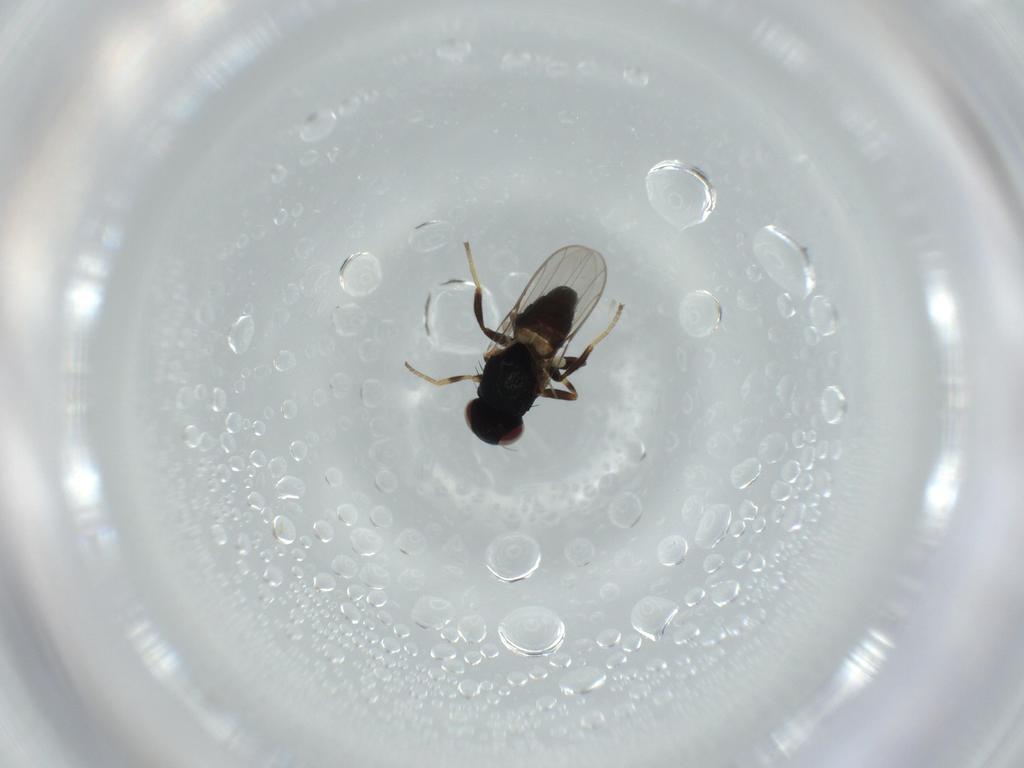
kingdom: Animalia
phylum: Arthropoda
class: Insecta
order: Diptera
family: Chloropidae
